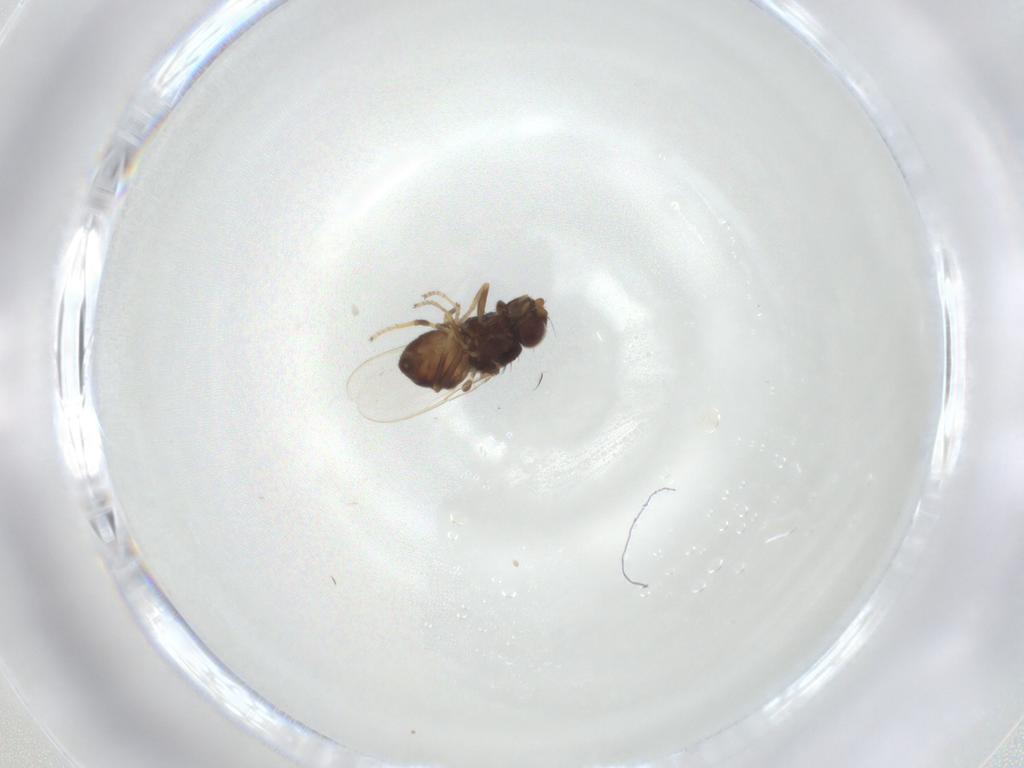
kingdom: Animalia
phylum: Arthropoda
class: Insecta
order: Diptera
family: Chloropidae
